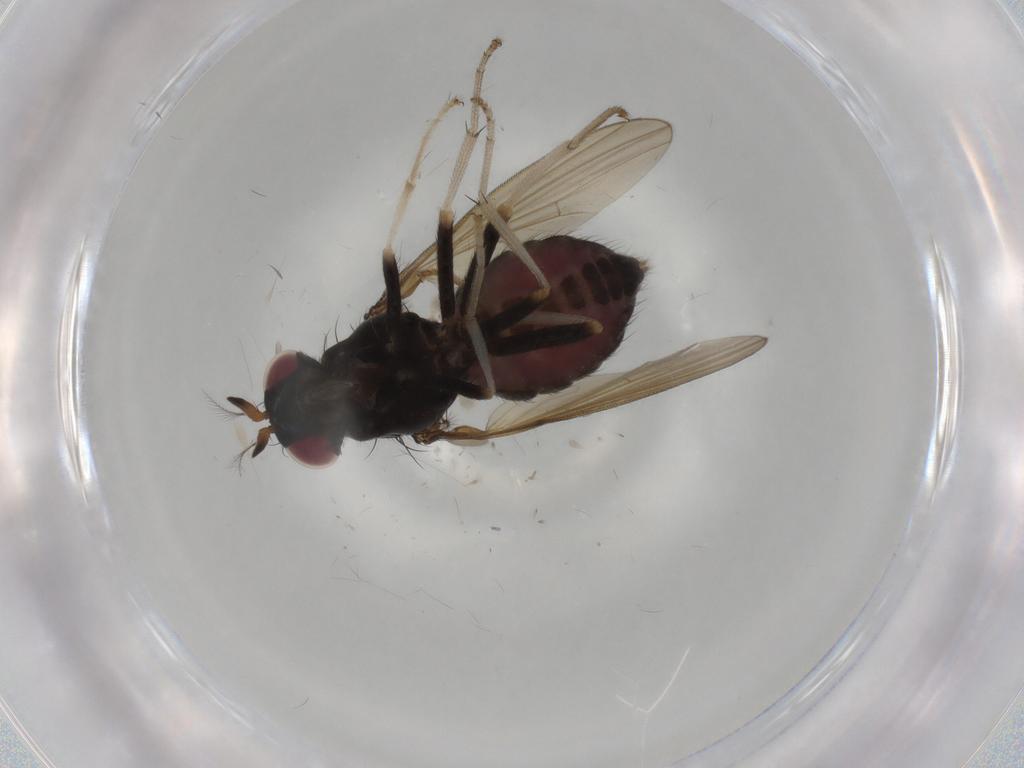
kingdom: Animalia
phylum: Arthropoda
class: Insecta
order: Diptera
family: Lauxaniidae
